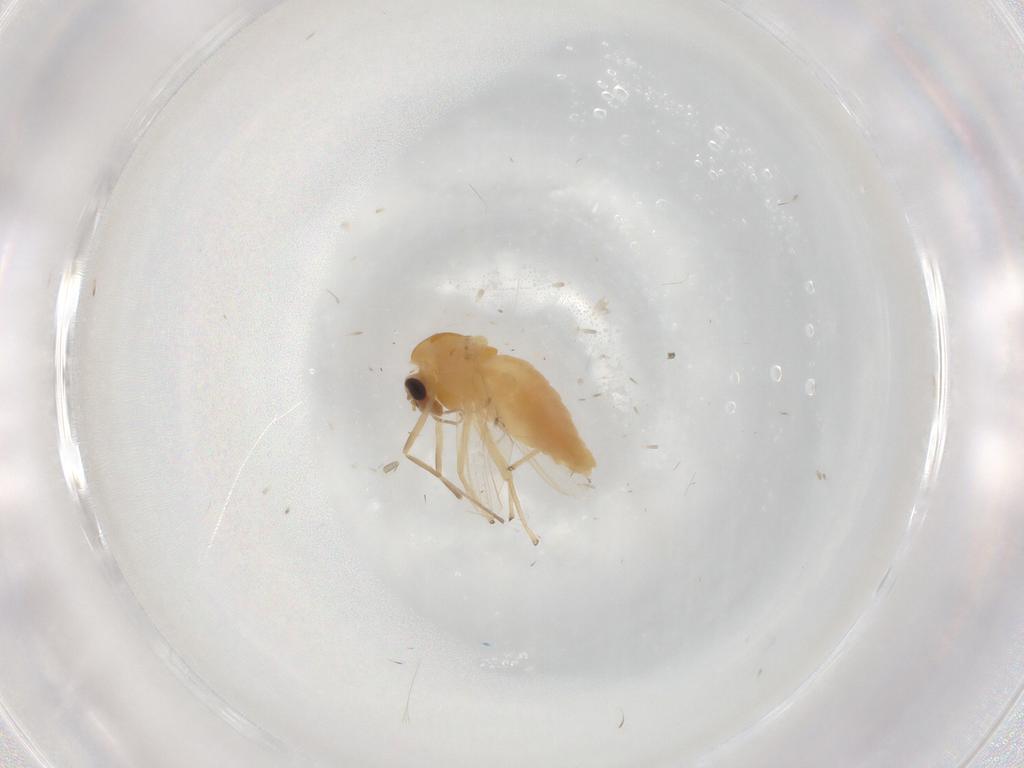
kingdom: Animalia
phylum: Arthropoda
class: Insecta
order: Diptera
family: Chironomidae
